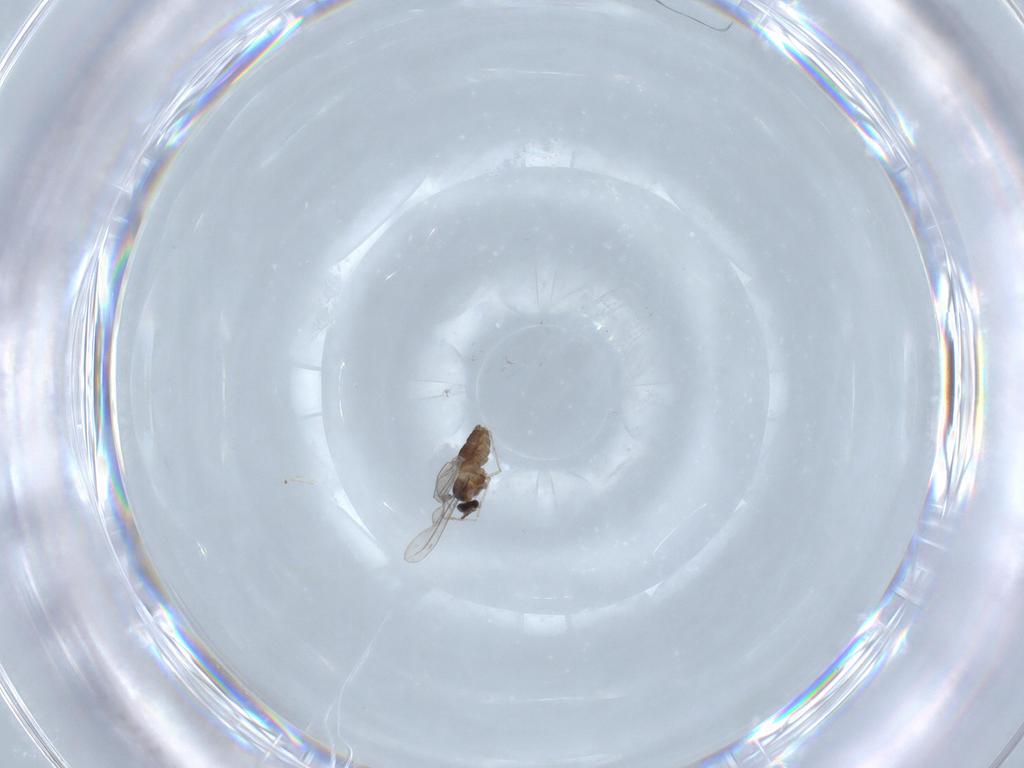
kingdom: Animalia
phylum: Arthropoda
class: Insecta
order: Diptera
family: Cecidomyiidae
